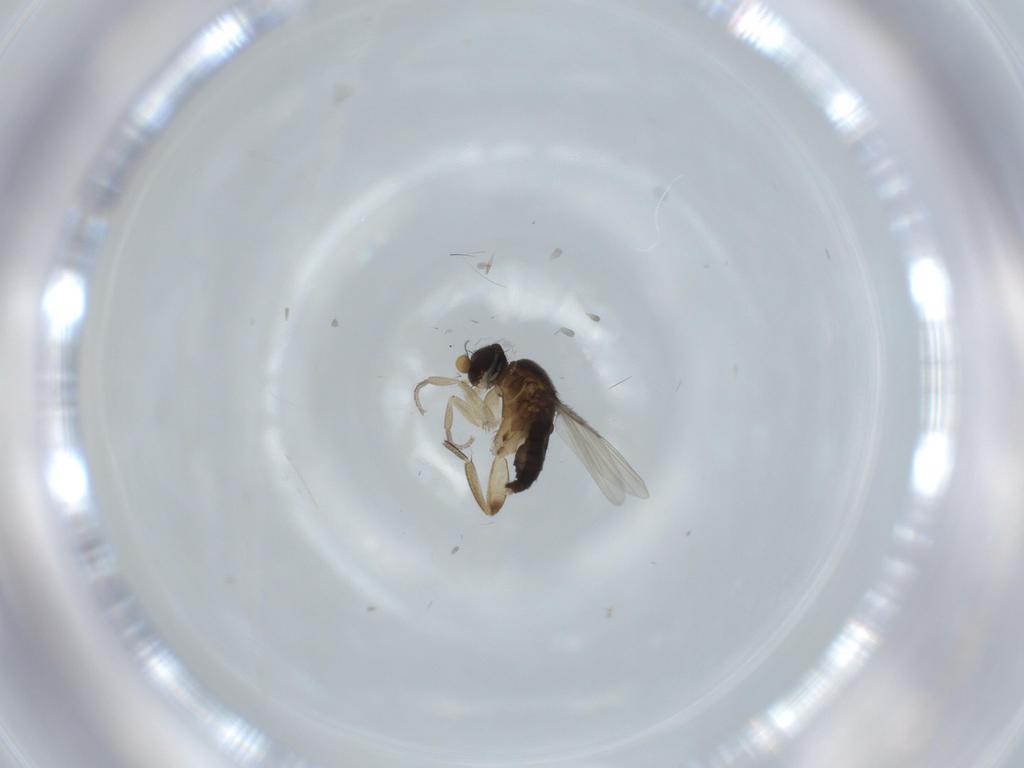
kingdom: Animalia
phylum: Arthropoda
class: Insecta
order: Diptera
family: Phoridae
